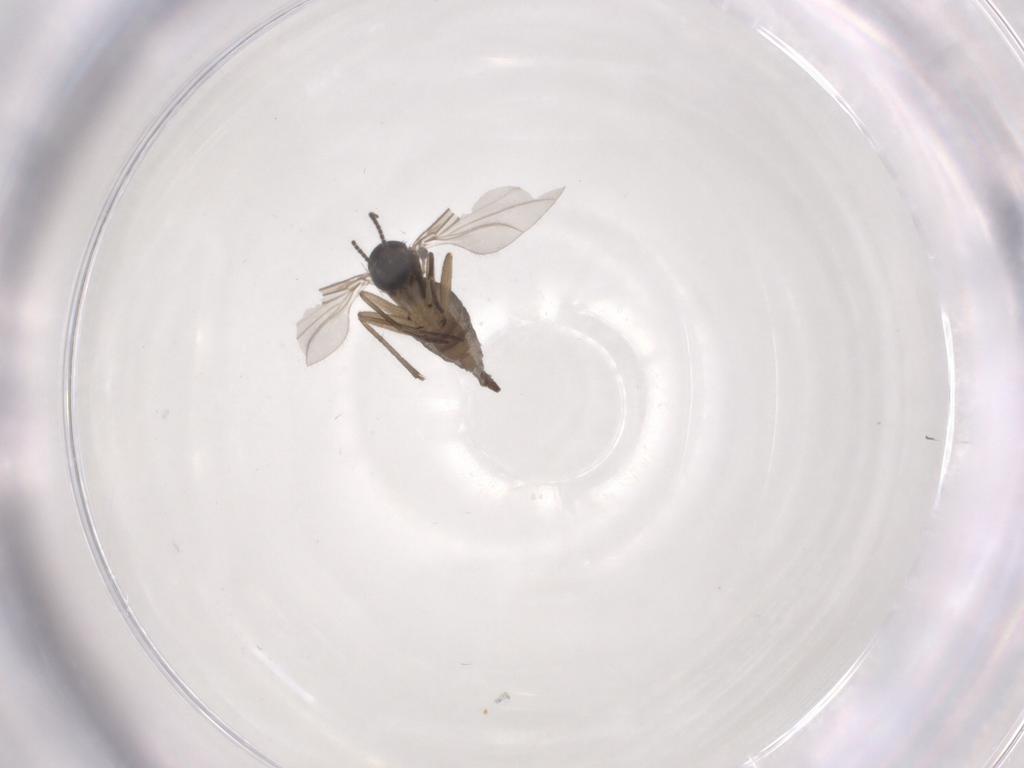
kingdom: Animalia
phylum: Arthropoda
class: Insecta
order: Diptera
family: Sciaridae
